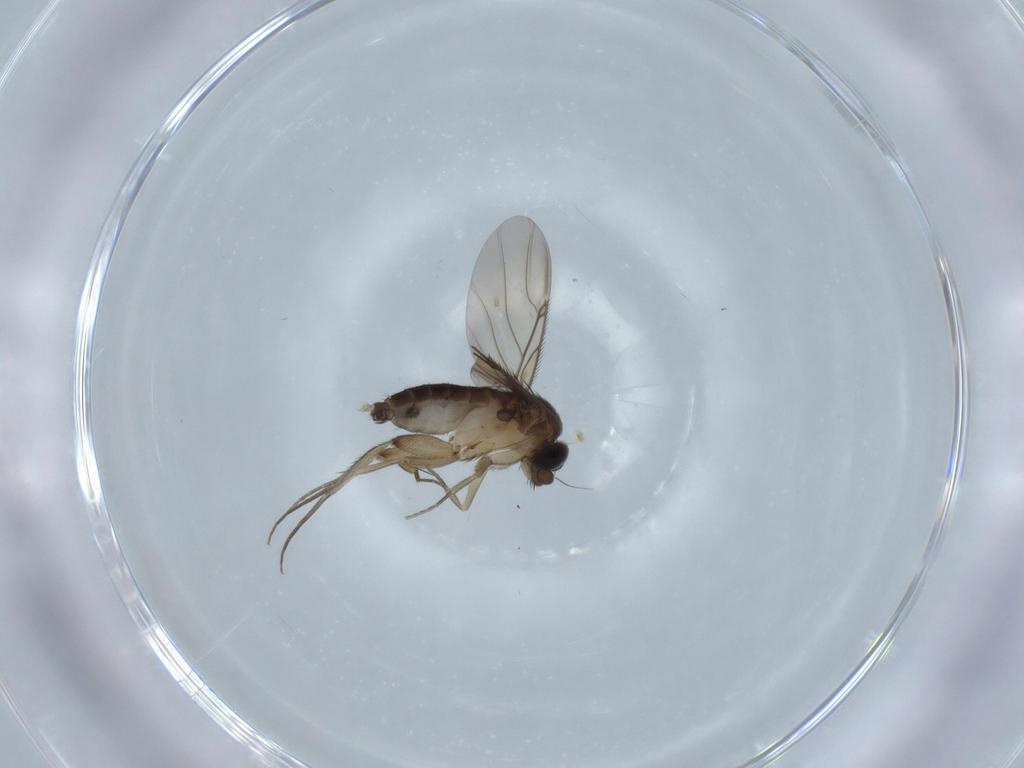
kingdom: Animalia
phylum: Arthropoda
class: Insecta
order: Diptera
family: Phoridae
